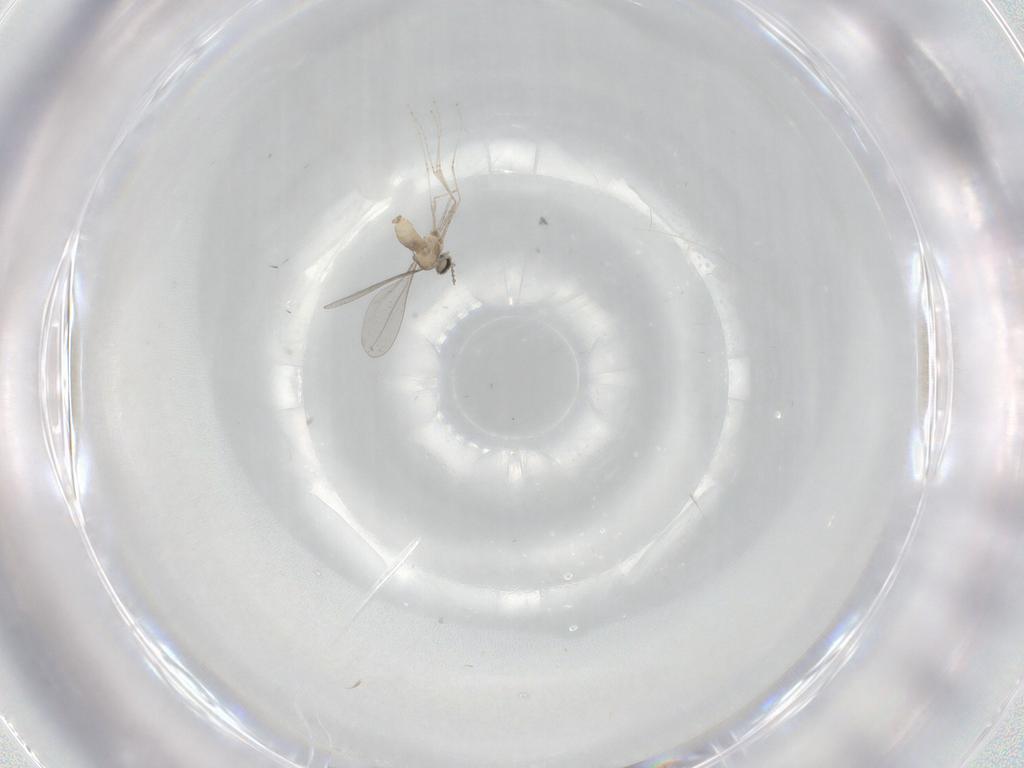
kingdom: Animalia
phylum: Arthropoda
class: Insecta
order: Diptera
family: Cecidomyiidae
